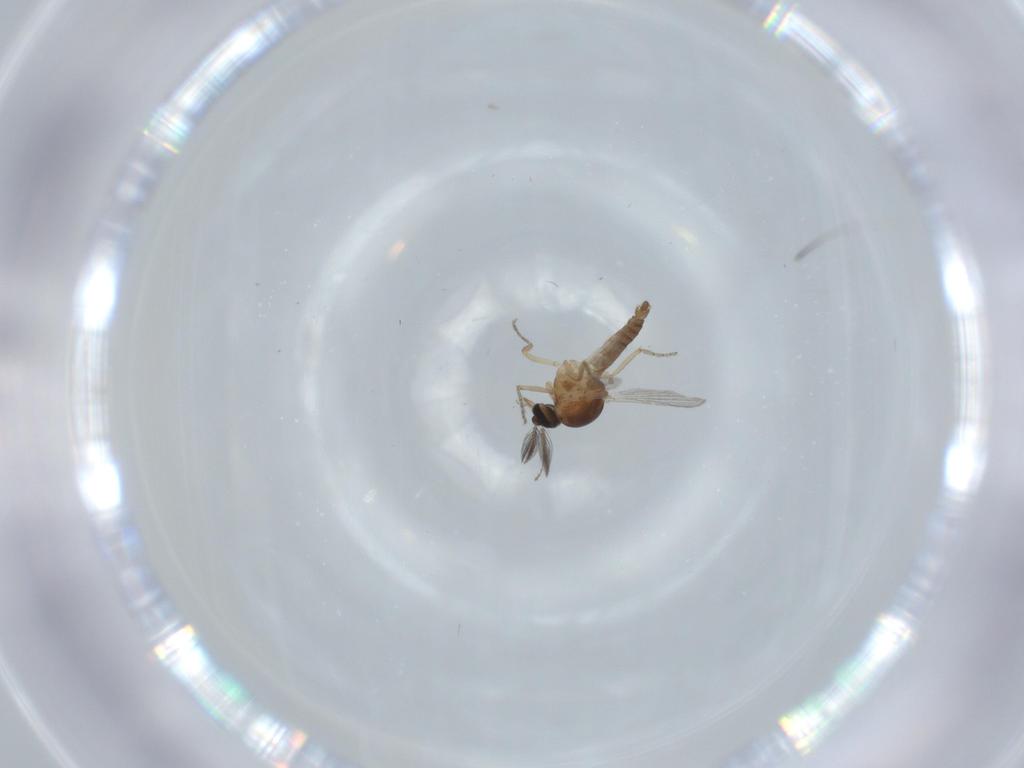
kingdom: Animalia
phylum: Arthropoda
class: Insecta
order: Diptera
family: Ceratopogonidae
